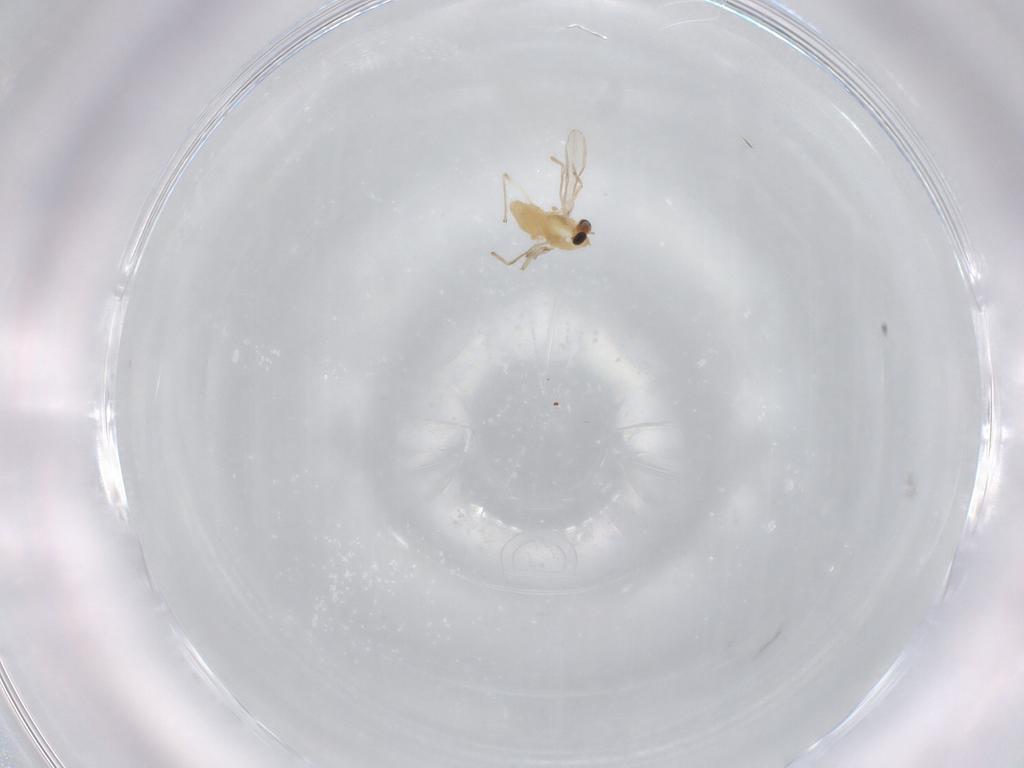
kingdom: Animalia
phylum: Arthropoda
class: Insecta
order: Diptera
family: Chironomidae
